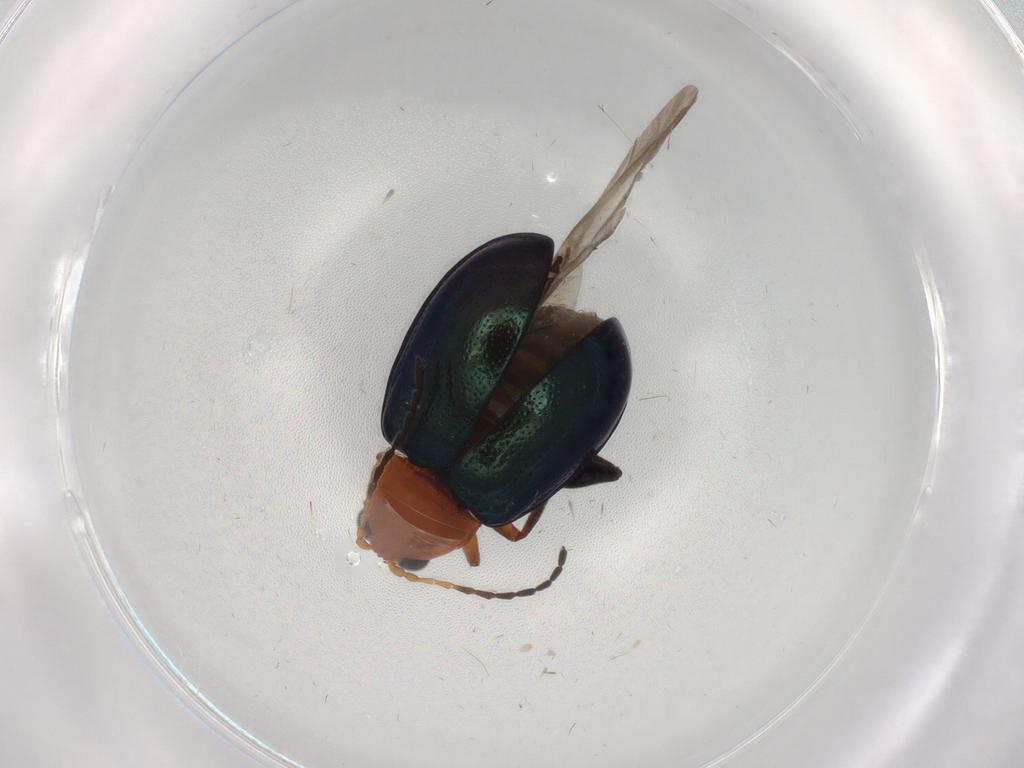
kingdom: Animalia
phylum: Arthropoda
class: Insecta
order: Coleoptera
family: Chrysomelidae
